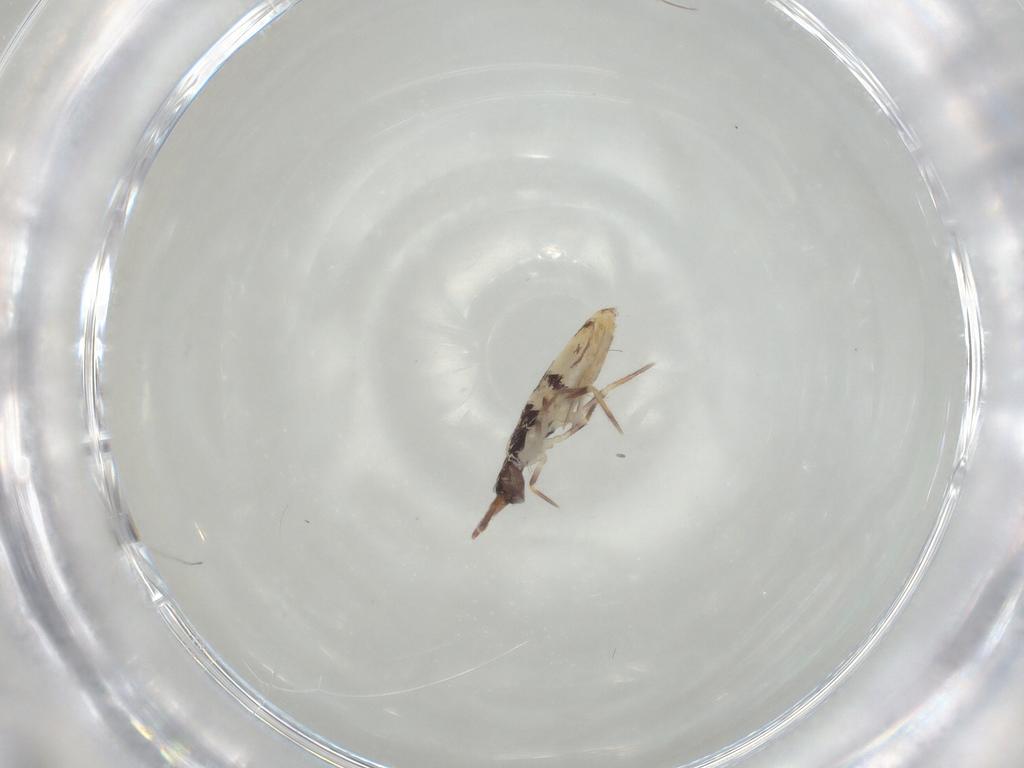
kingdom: Animalia
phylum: Arthropoda
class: Collembola
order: Entomobryomorpha
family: Entomobryidae
